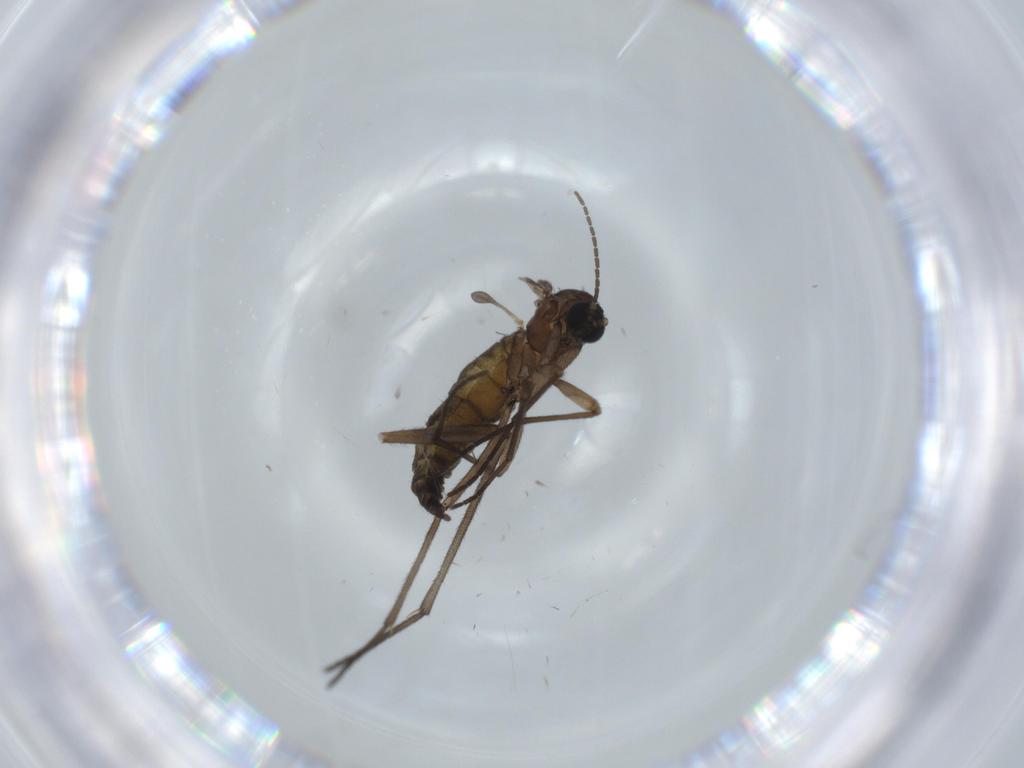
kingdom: Animalia
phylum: Arthropoda
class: Insecta
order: Diptera
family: Sciaridae
